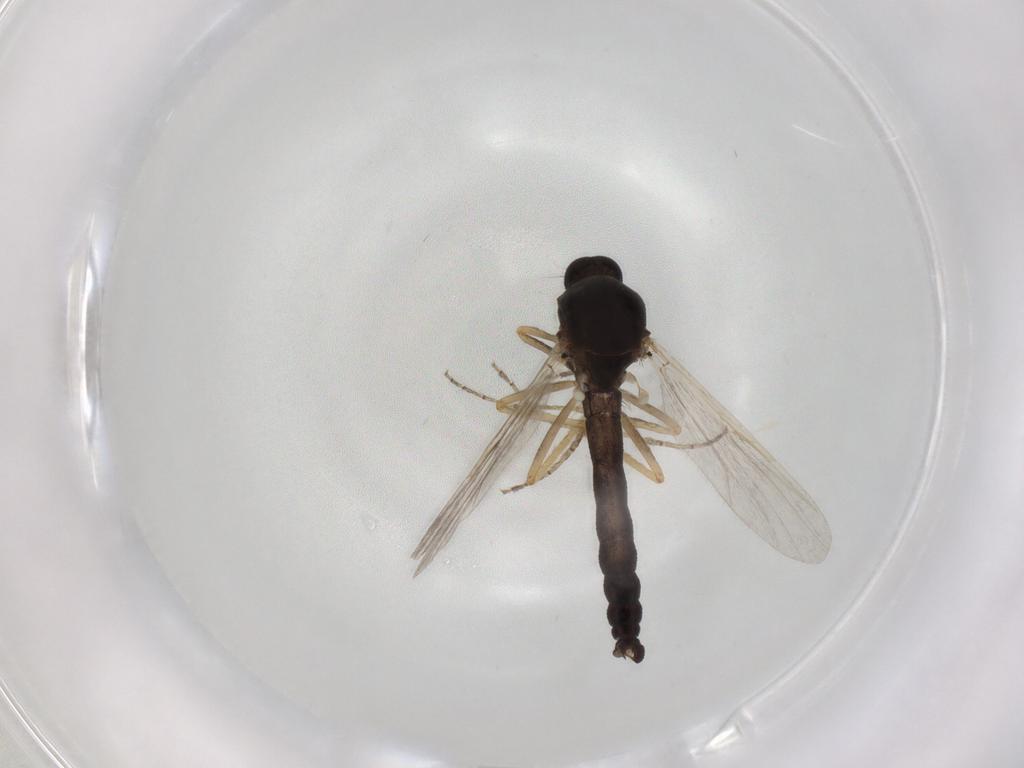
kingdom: Animalia
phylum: Arthropoda
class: Insecta
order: Diptera
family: Ceratopogonidae
